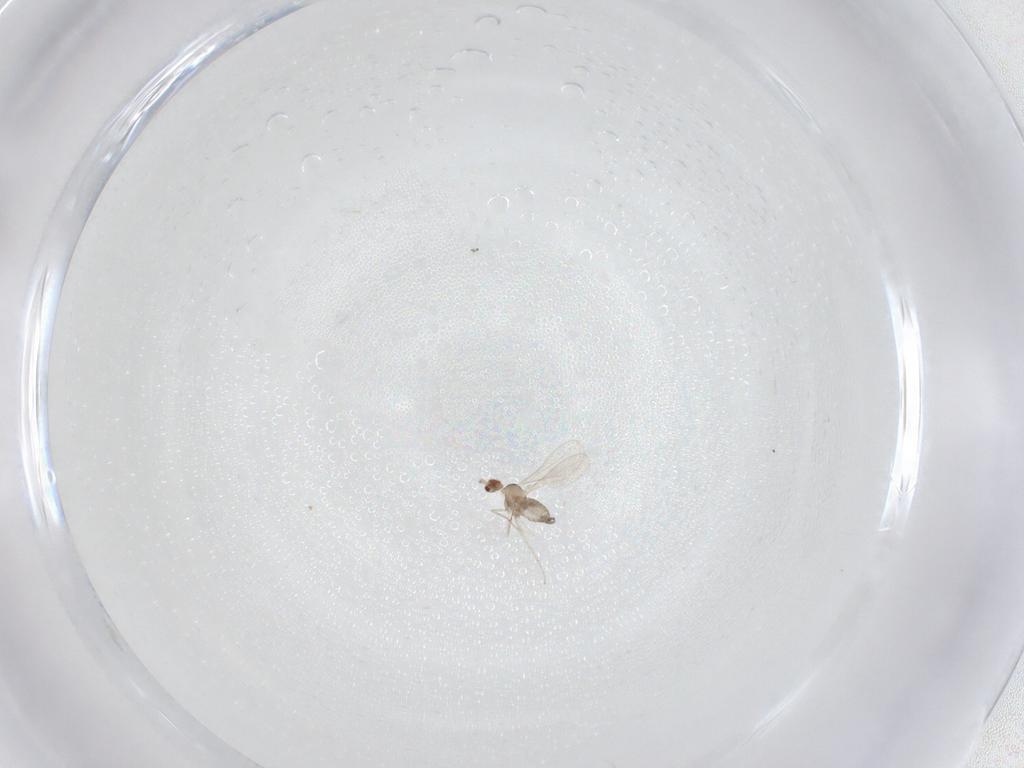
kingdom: Animalia
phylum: Arthropoda
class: Insecta
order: Diptera
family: Cecidomyiidae
